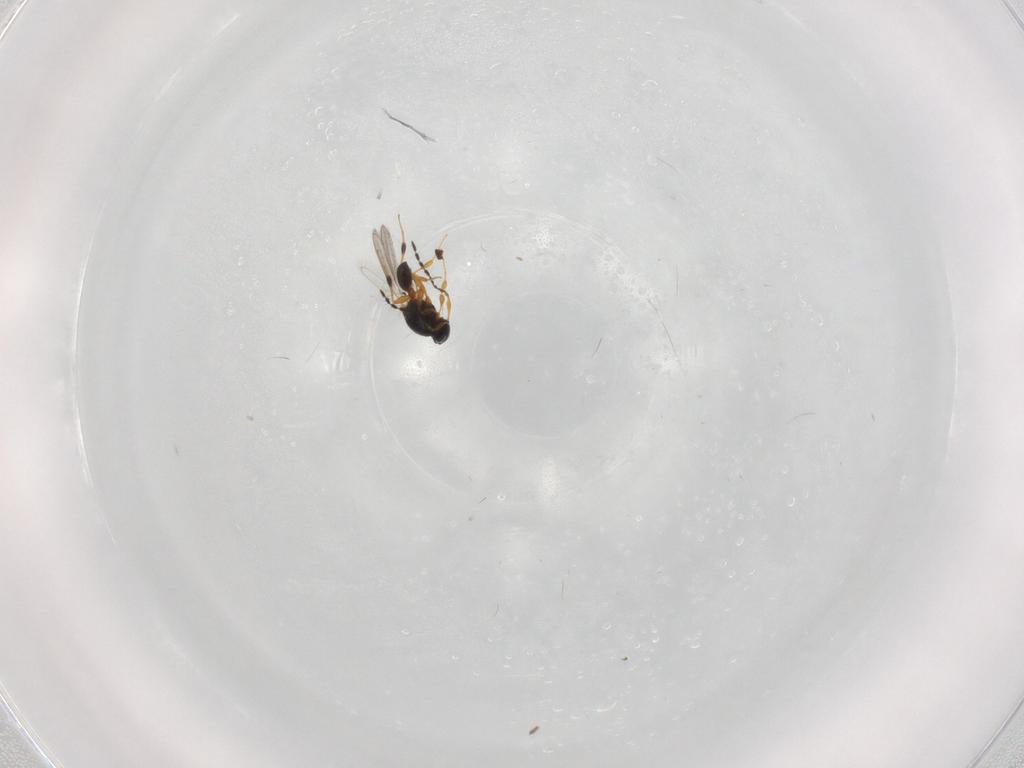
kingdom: Animalia
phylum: Arthropoda
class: Insecta
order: Hymenoptera
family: Platygastridae
